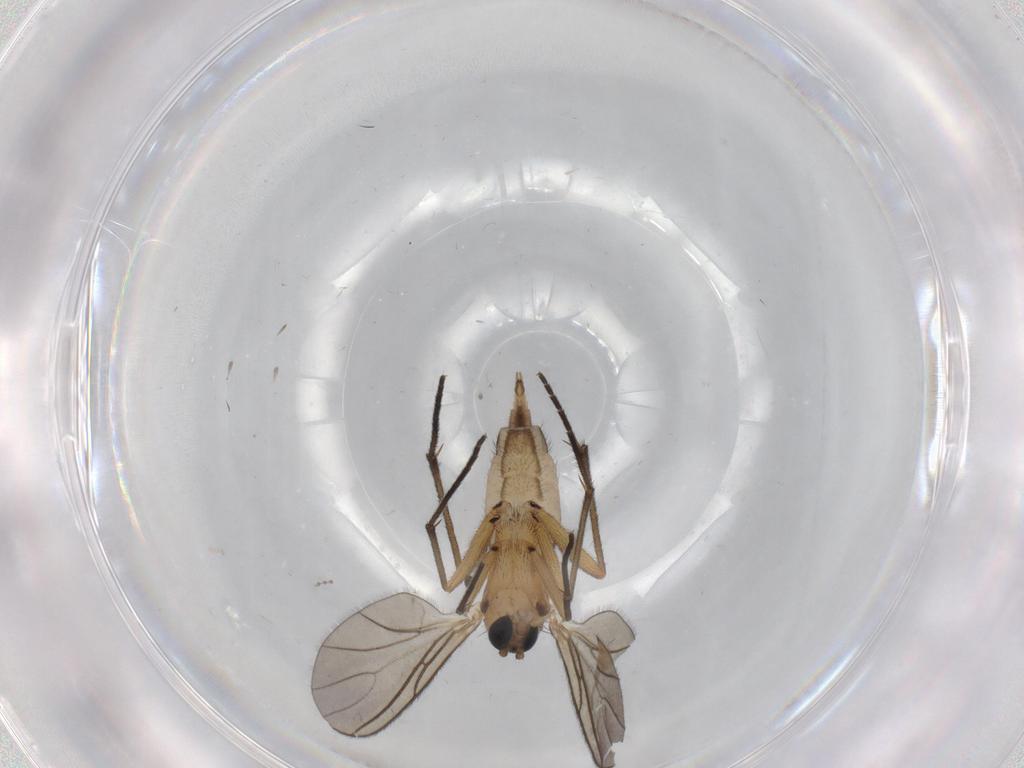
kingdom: Animalia
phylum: Arthropoda
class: Insecta
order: Diptera
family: Sciaridae
